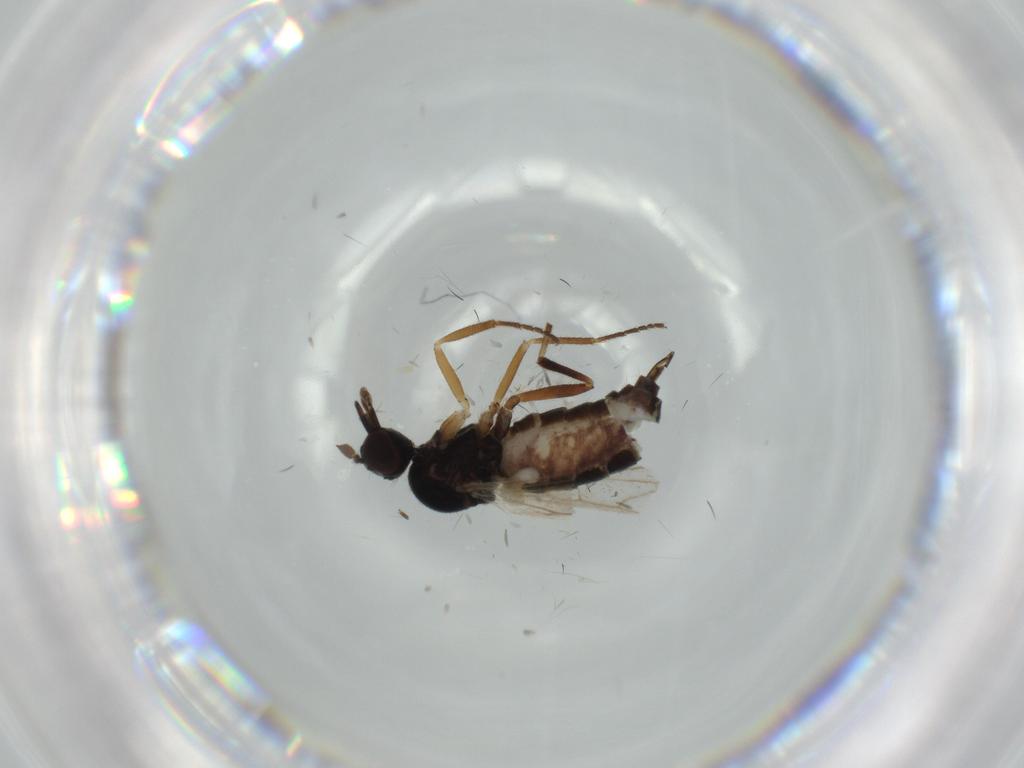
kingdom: Animalia
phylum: Arthropoda
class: Insecta
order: Diptera
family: Hybotidae
